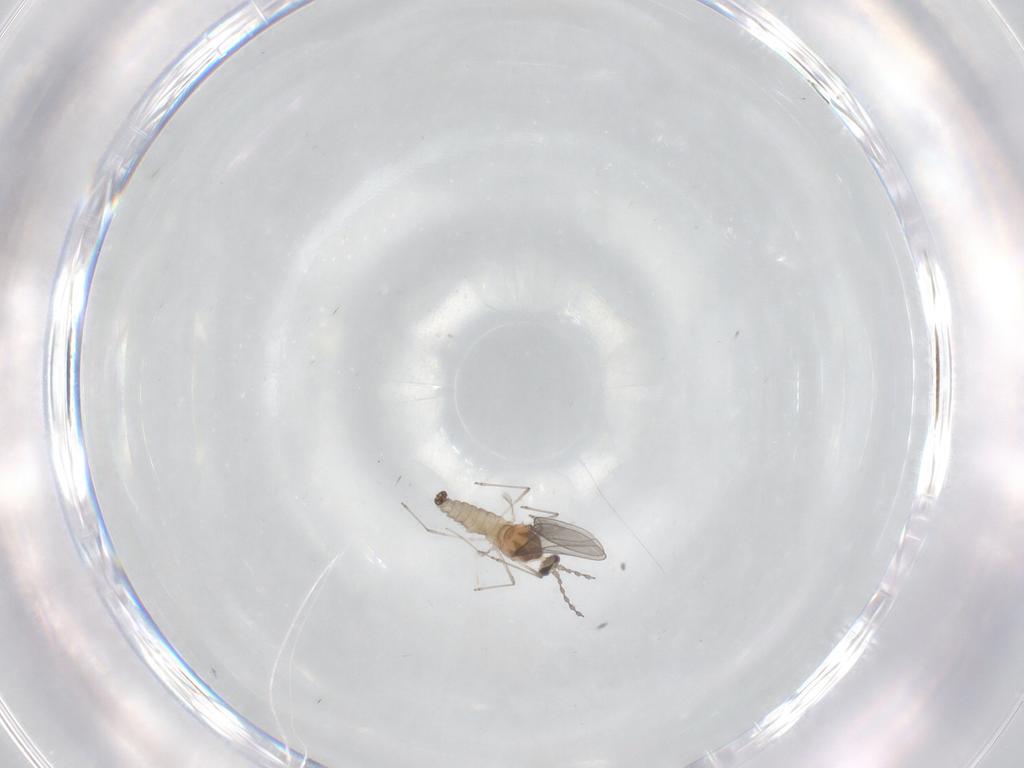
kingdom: Animalia
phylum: Arthropoda
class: Insecta
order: Diptera
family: Cecidomyiidae
